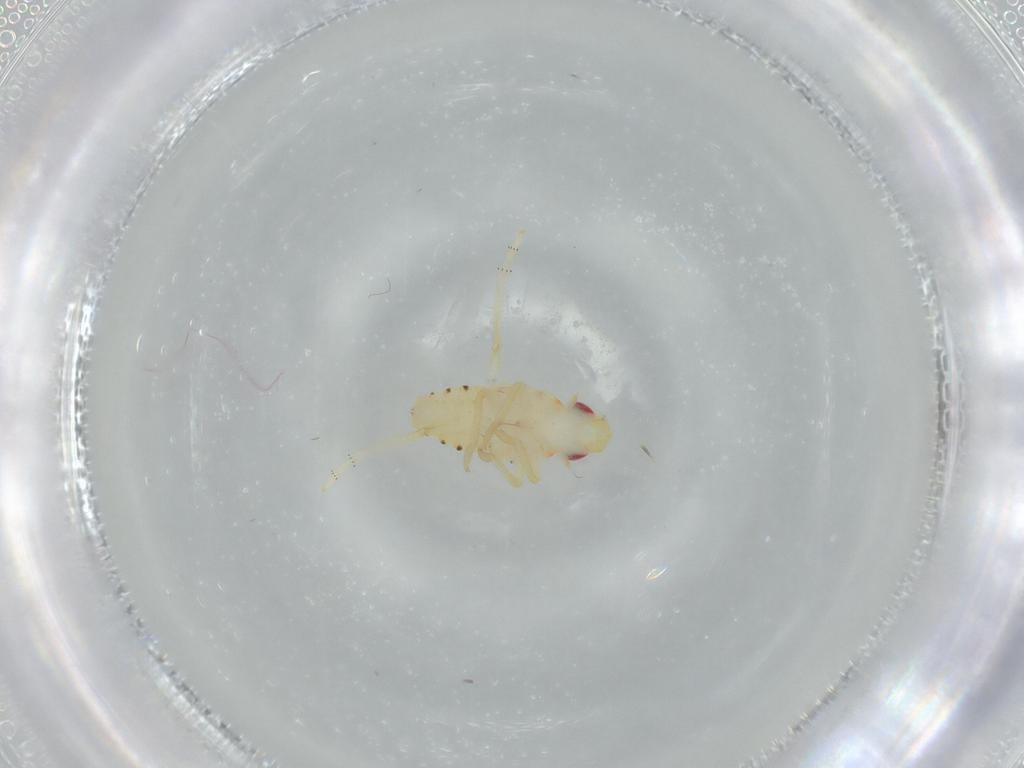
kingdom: Animalia
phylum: Arthropoda
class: Insecta
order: Hemiptera
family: Tropiduchidae
